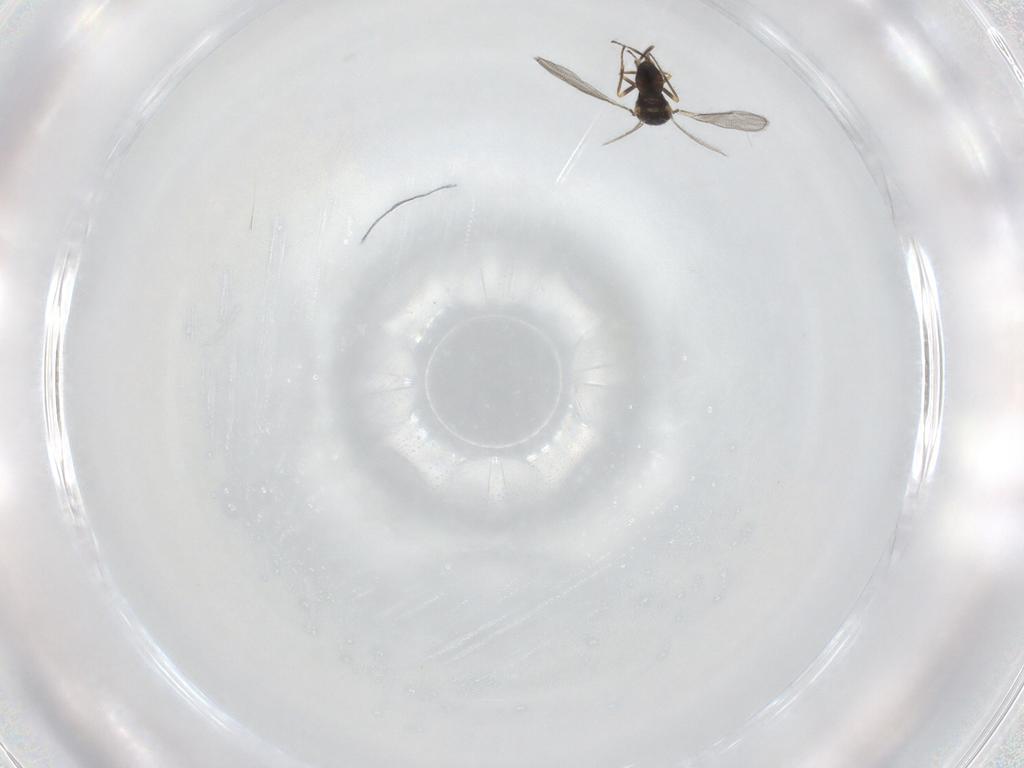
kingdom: Animalia
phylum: Arthropoda
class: Insecta
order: Hymenoptera
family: Eulophidae
